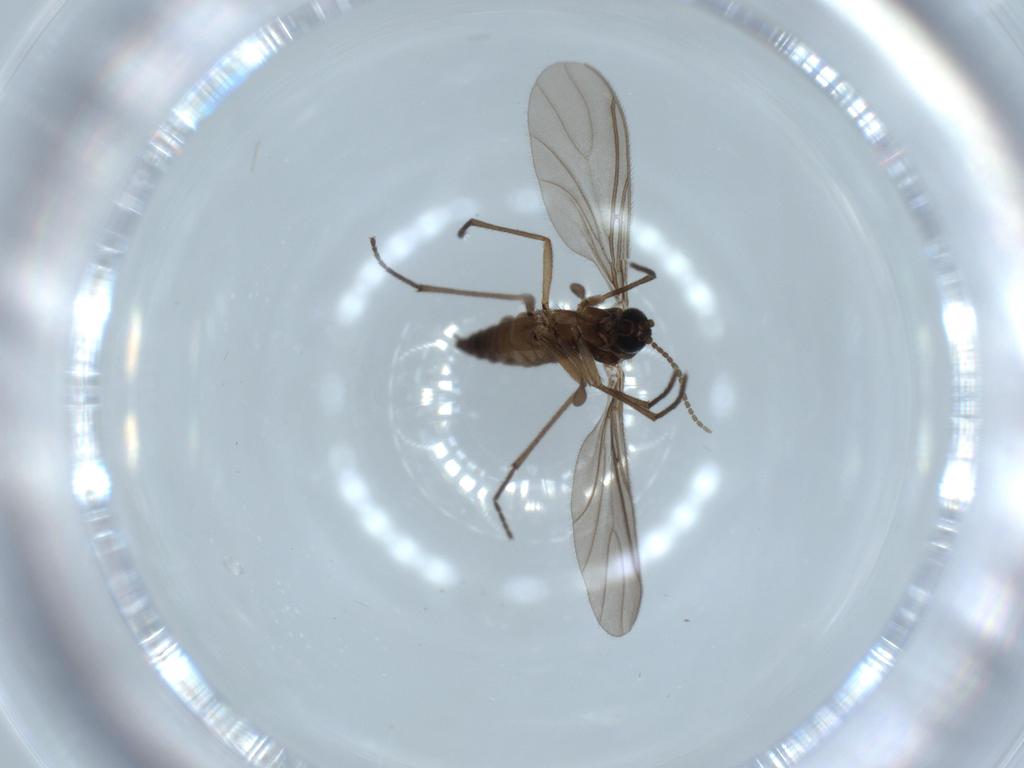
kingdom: Animalia
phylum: Arthropoda
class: Insecta
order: Diptera
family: Sciaridae
